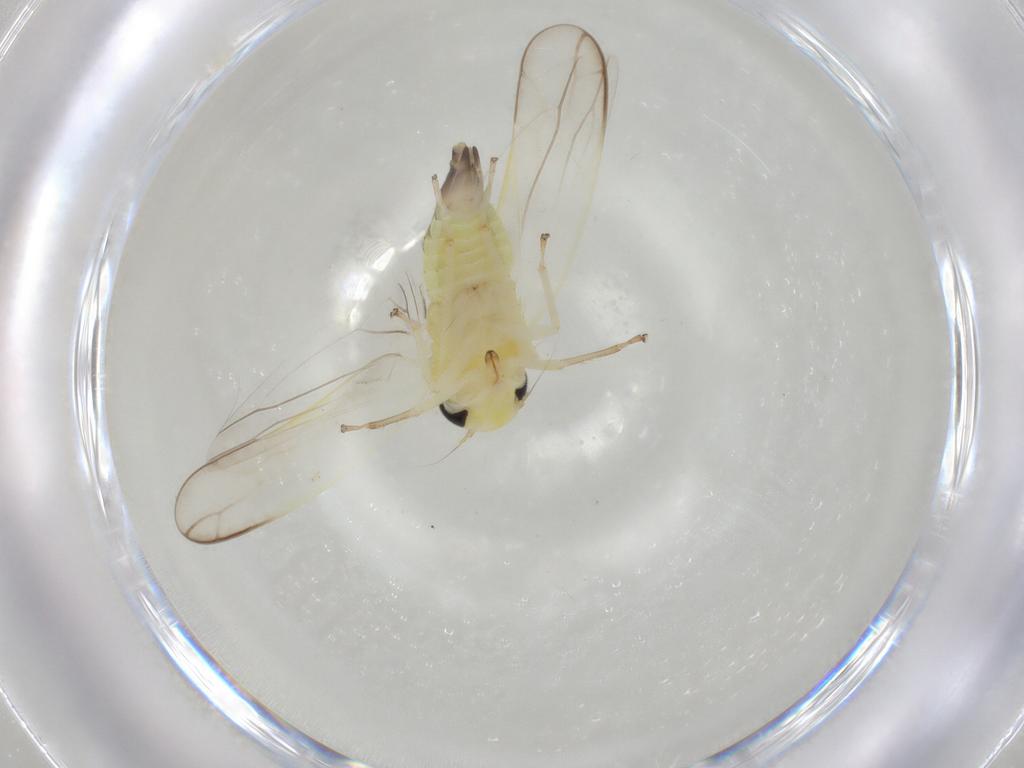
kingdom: Animalia
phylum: Arthropoda
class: Insecta
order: Hemiptera
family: Cicadellidae
